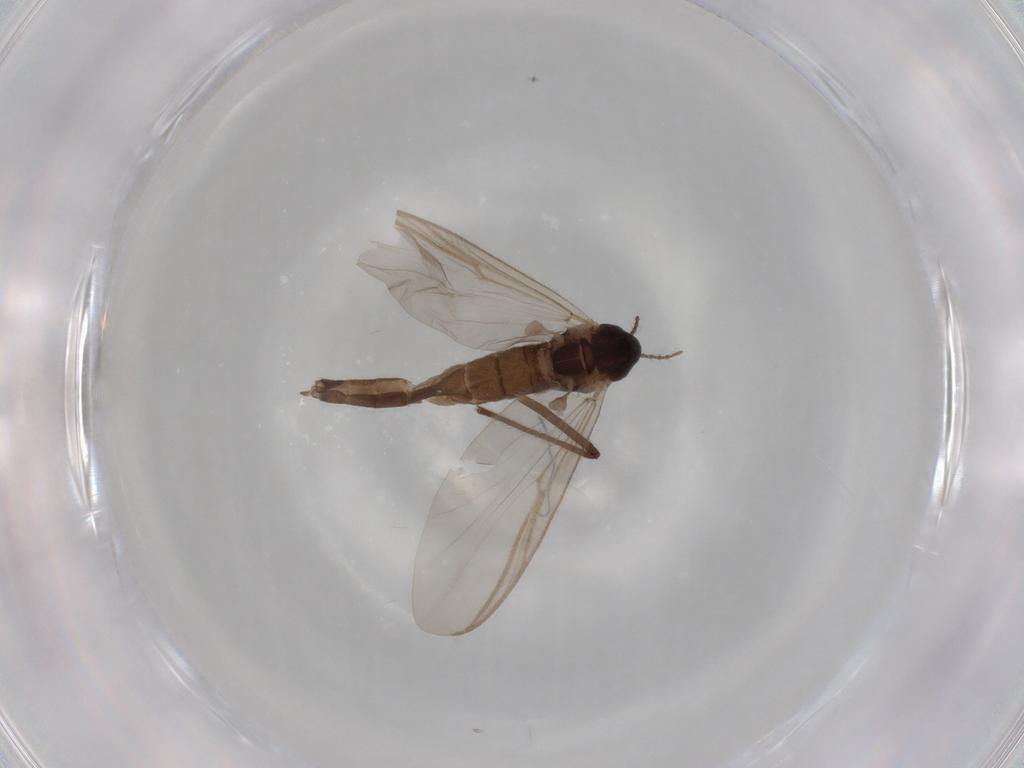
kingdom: Animalia
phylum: Arthropoda
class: Insecta
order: Diptera
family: Chironomidae
